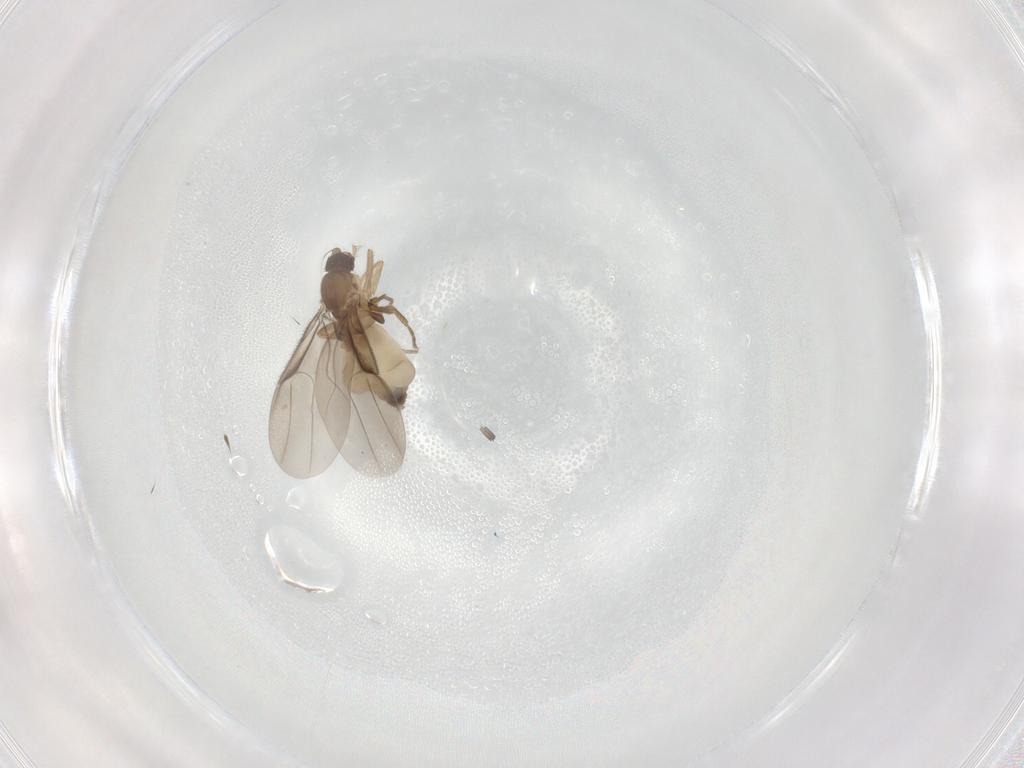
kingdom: Animalia
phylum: Arthropoda
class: Insecta
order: Diptera
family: Phoridae
